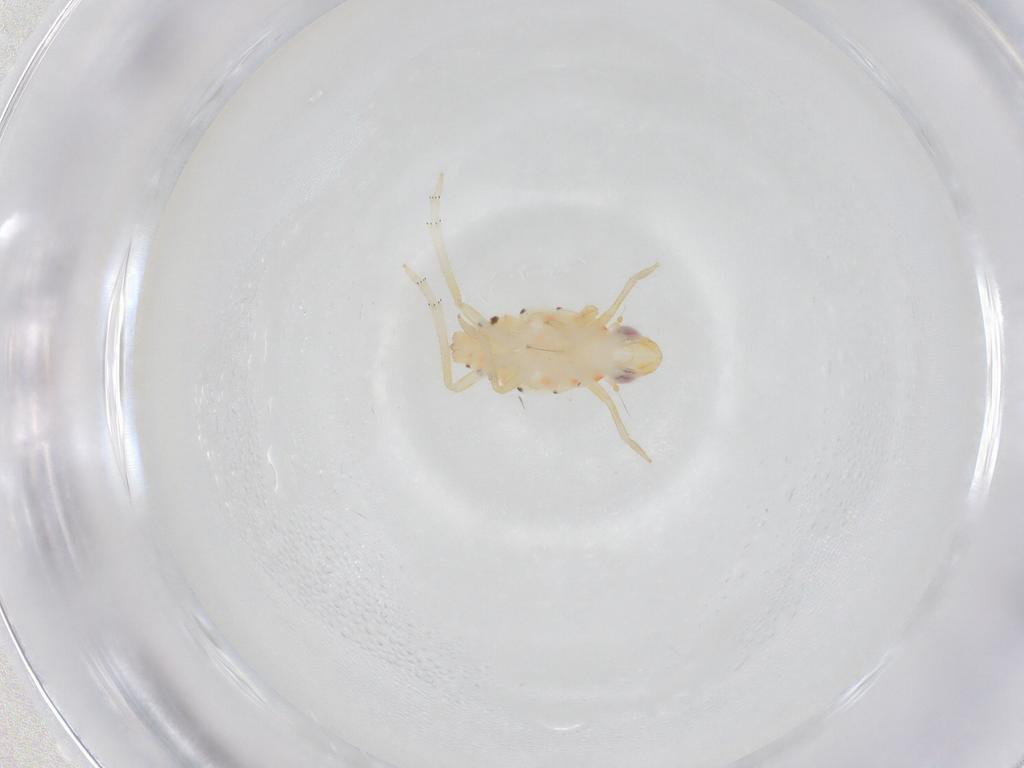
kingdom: Animalia
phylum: Arthropoda
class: Insecta
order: Hemiptera
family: Tropiduchidae
